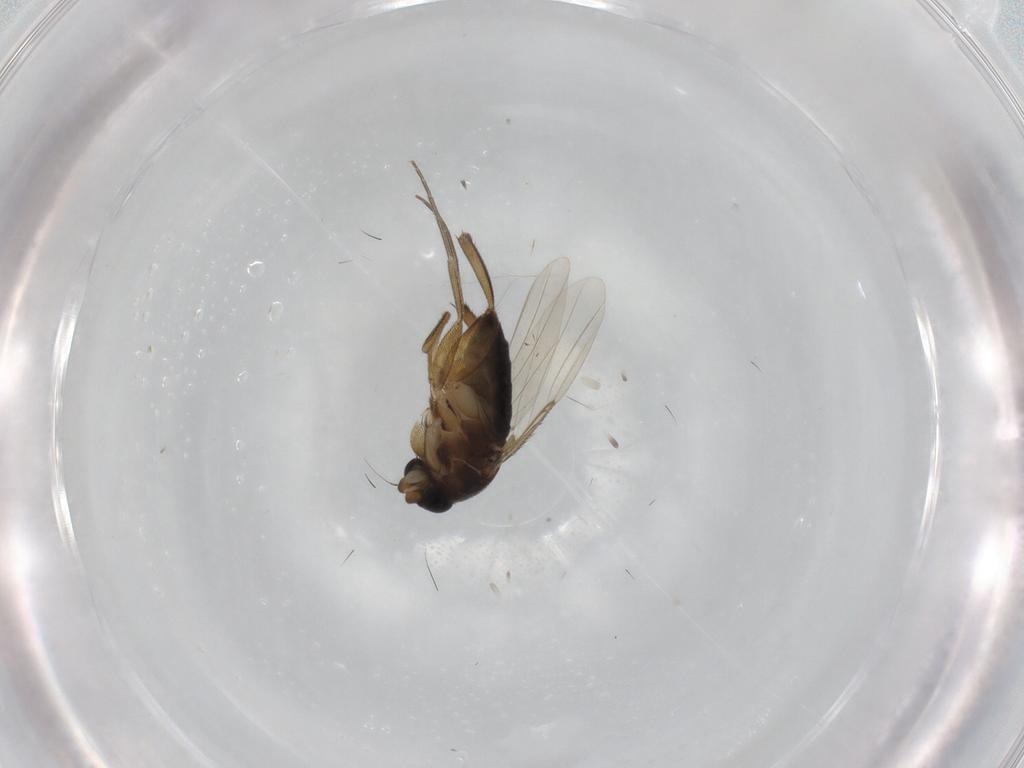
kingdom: Animalia
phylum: Arthropoda
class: Insecta
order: Diptera
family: Phoridae
